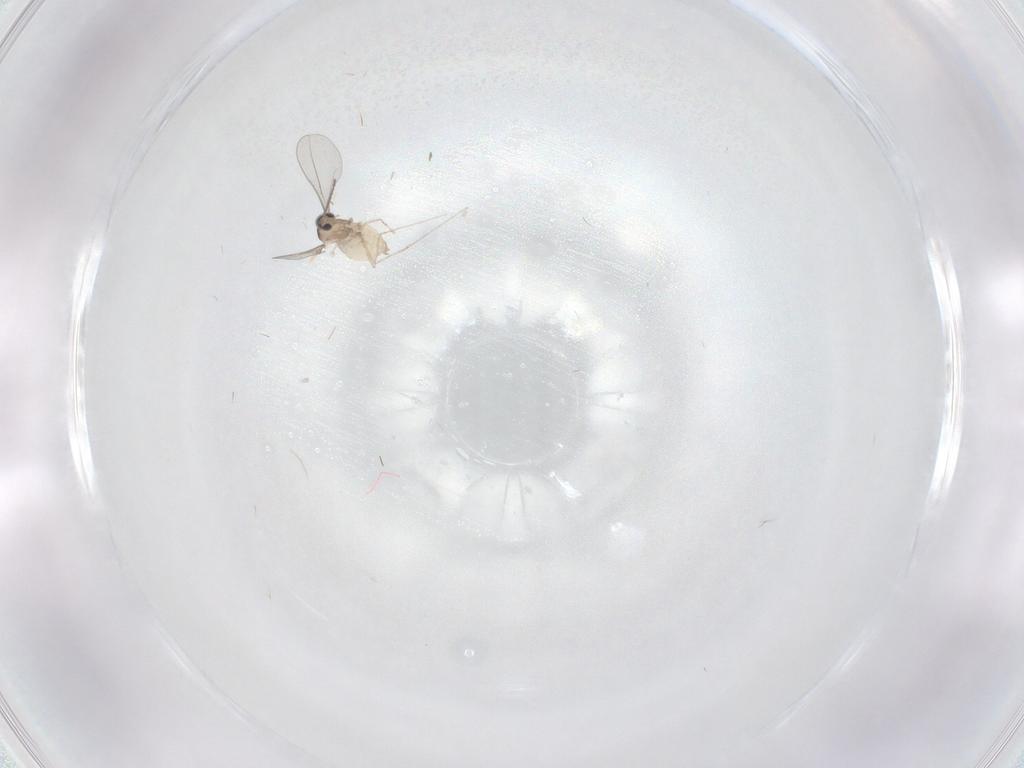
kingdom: Animalia
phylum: Arthropoda
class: Insecta
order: Diptera
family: Cecidomyiidae
